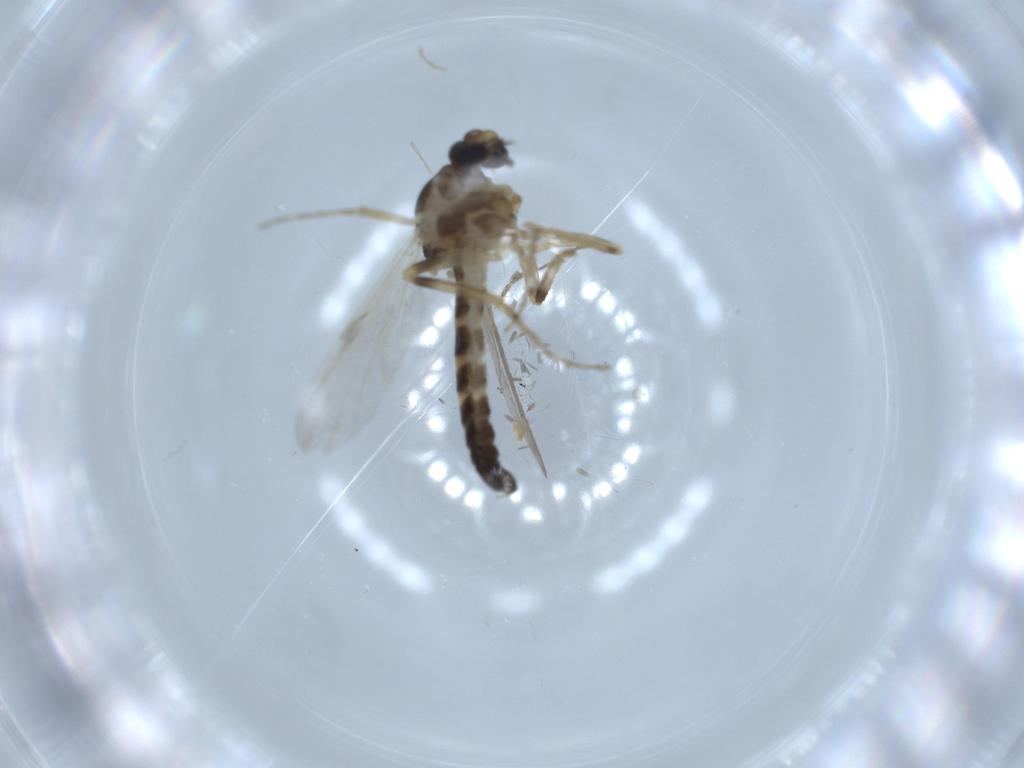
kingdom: Animalia
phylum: Arthropoda
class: Insecta
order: Diptera
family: Ceratopogonidae
